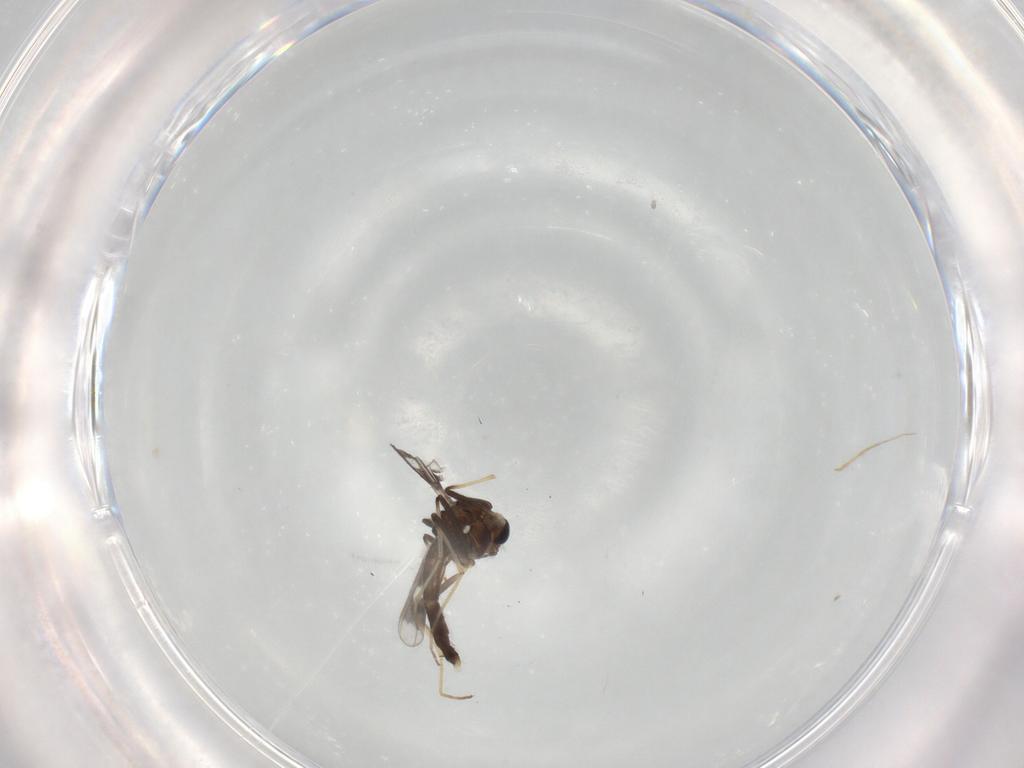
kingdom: Animalia
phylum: Arthropoda
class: Insecta
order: Diptera
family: Chironomidae
